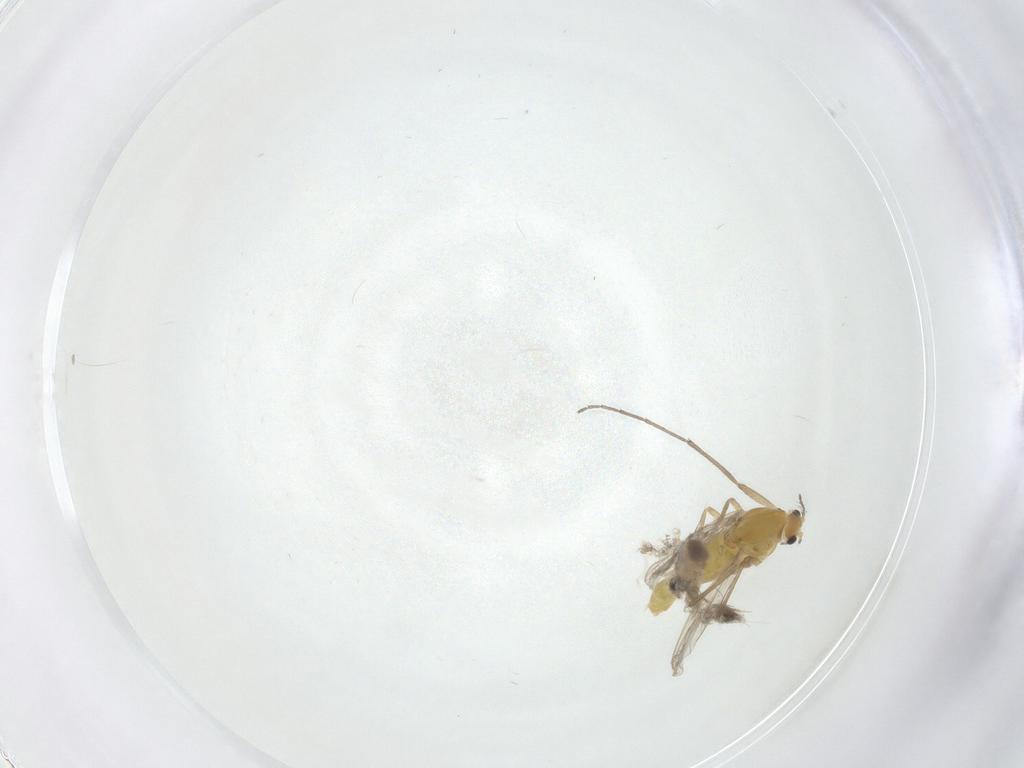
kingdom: Animalia
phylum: Arthropoda
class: Insecta
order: Diptera
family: Chironomidae
